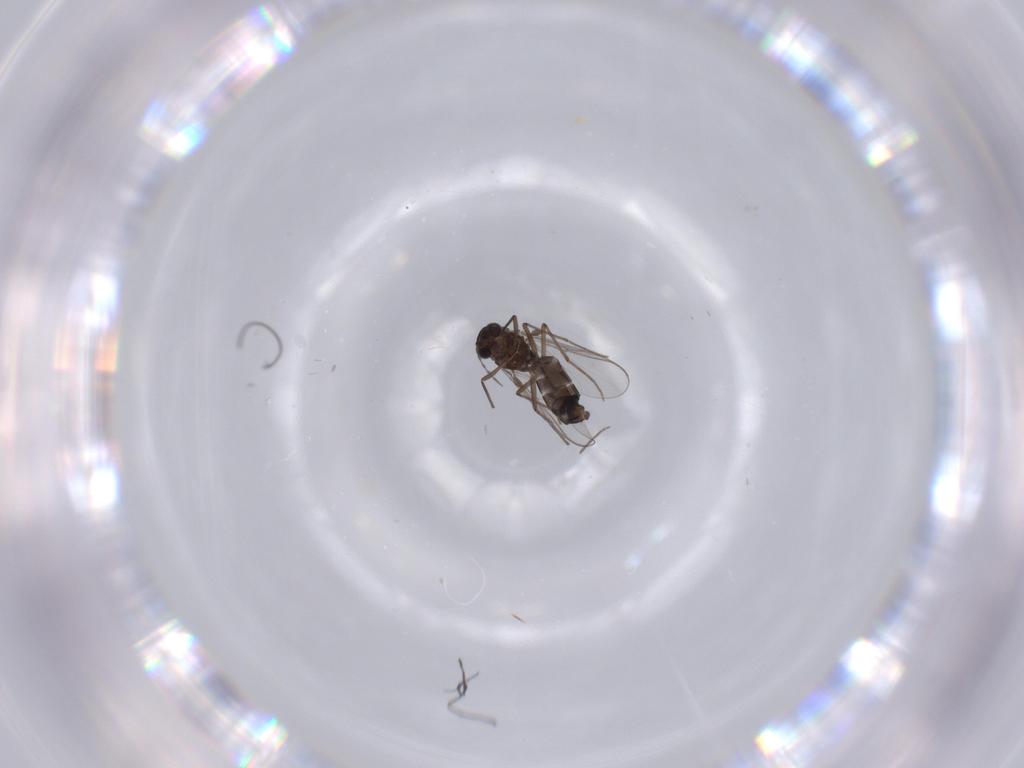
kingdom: Animalia
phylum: Arthropoda
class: Insecta
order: Diptera
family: Chironomidae
